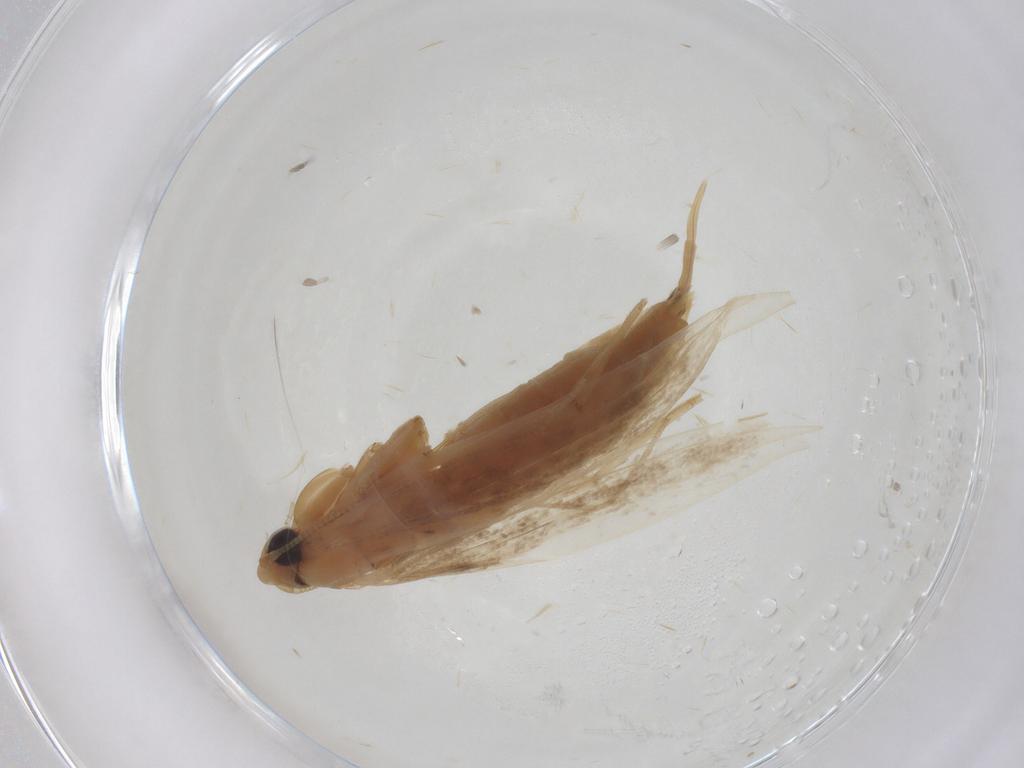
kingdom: Animalia
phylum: Arthropoda
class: Insecta
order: Lepidoptera
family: Tineidae
